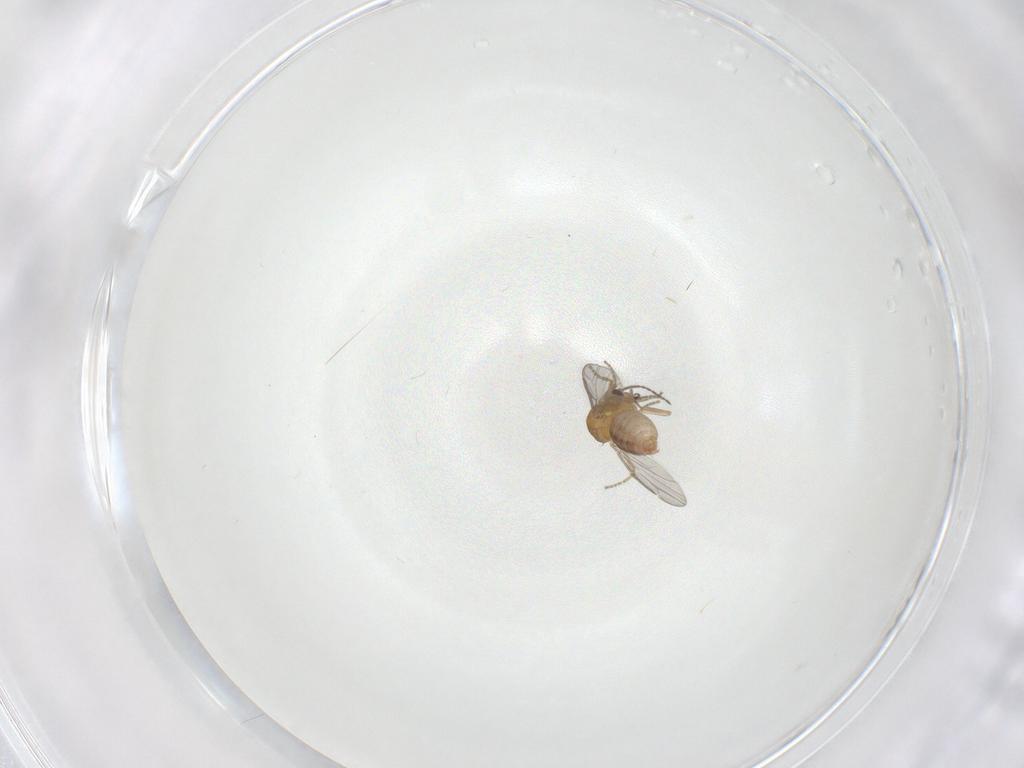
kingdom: Animalia
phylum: Arthropoda
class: Insecta
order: Diptera
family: Ceratopogonidae
